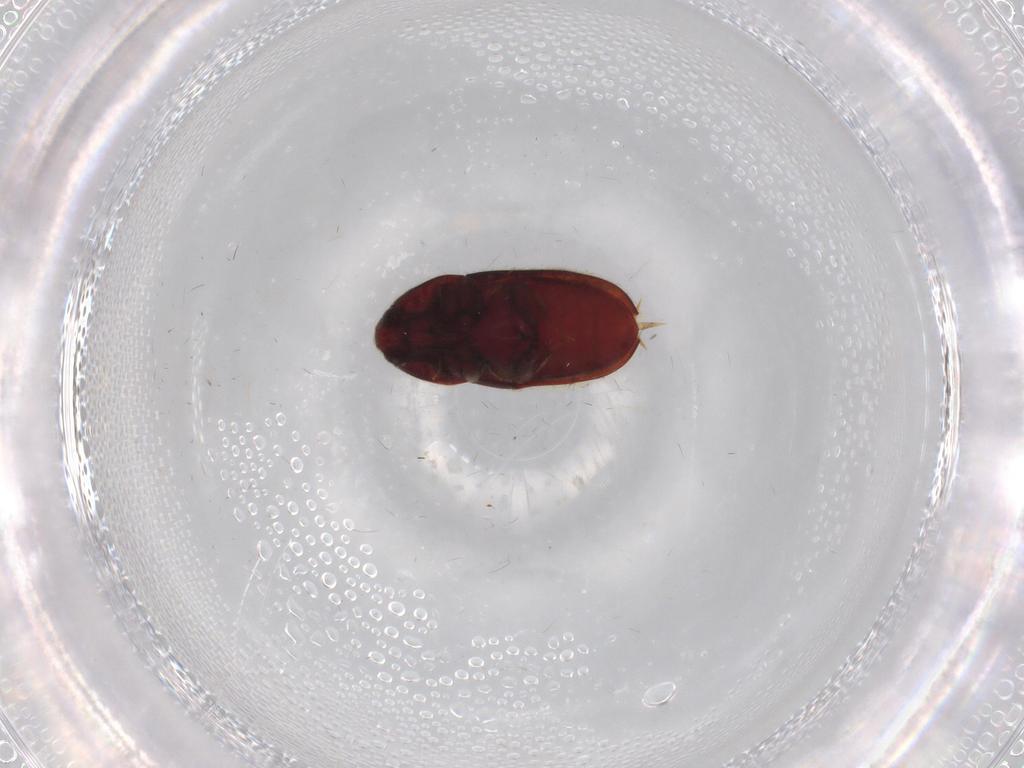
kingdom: Animalia
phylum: Arthropoda
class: Insecta
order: Coleoptera
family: Throscidae
